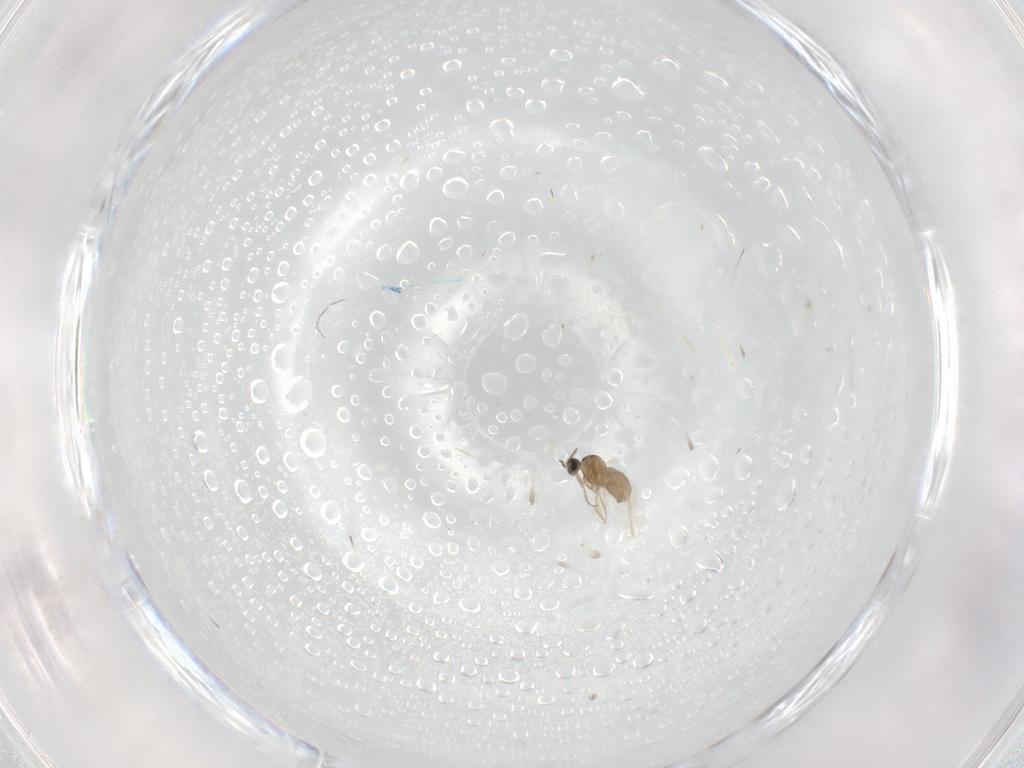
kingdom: Animalia
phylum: Arthropoda
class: Insecta
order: Diptera
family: Cecidomyiidae
